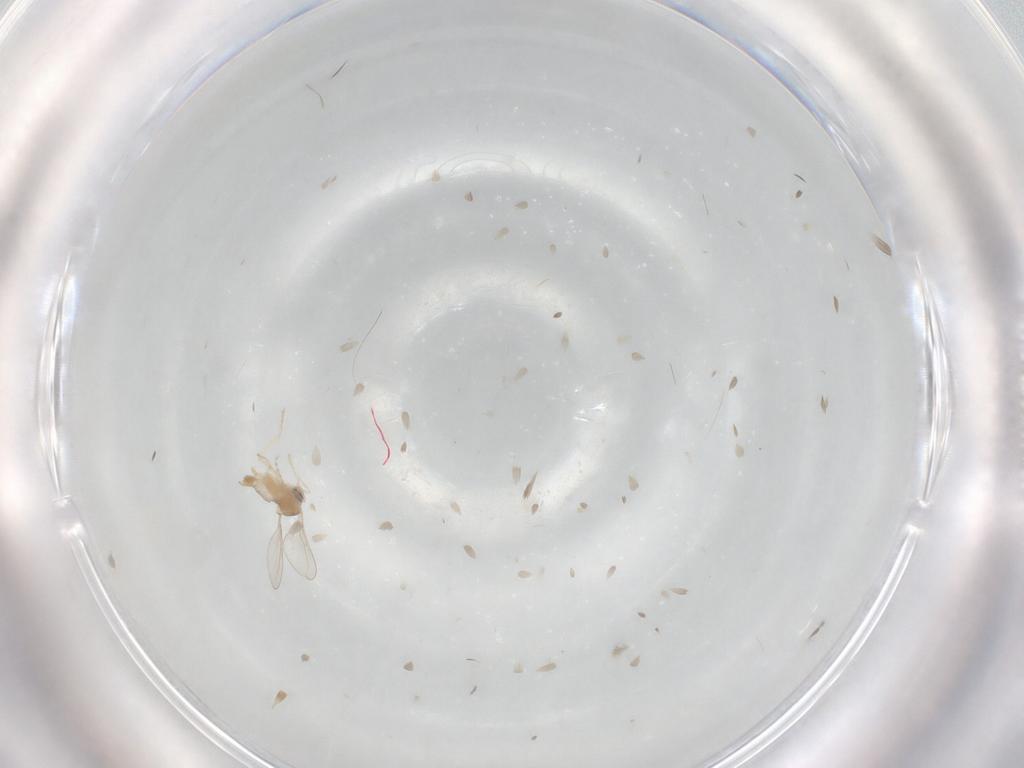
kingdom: Animalia
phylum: Arthropoda
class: Insecta
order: Diptera
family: Cecidomyiidae
